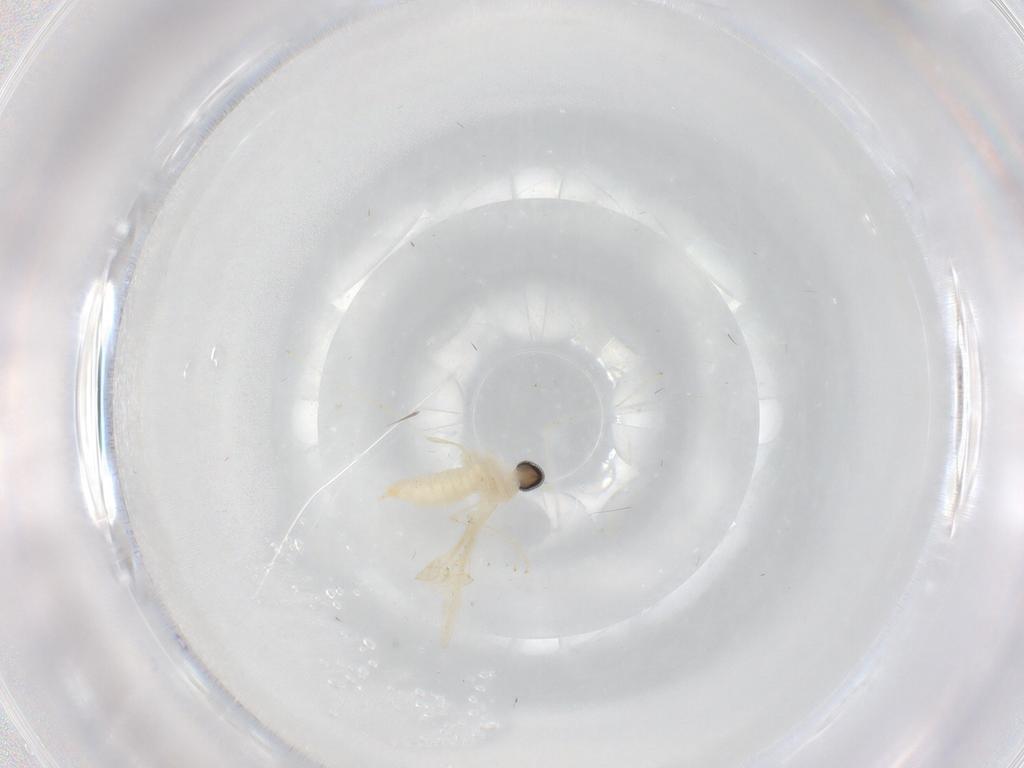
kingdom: Animalia
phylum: Arthropoda
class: Insecta
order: Diptera
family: Cecidomyiidae
